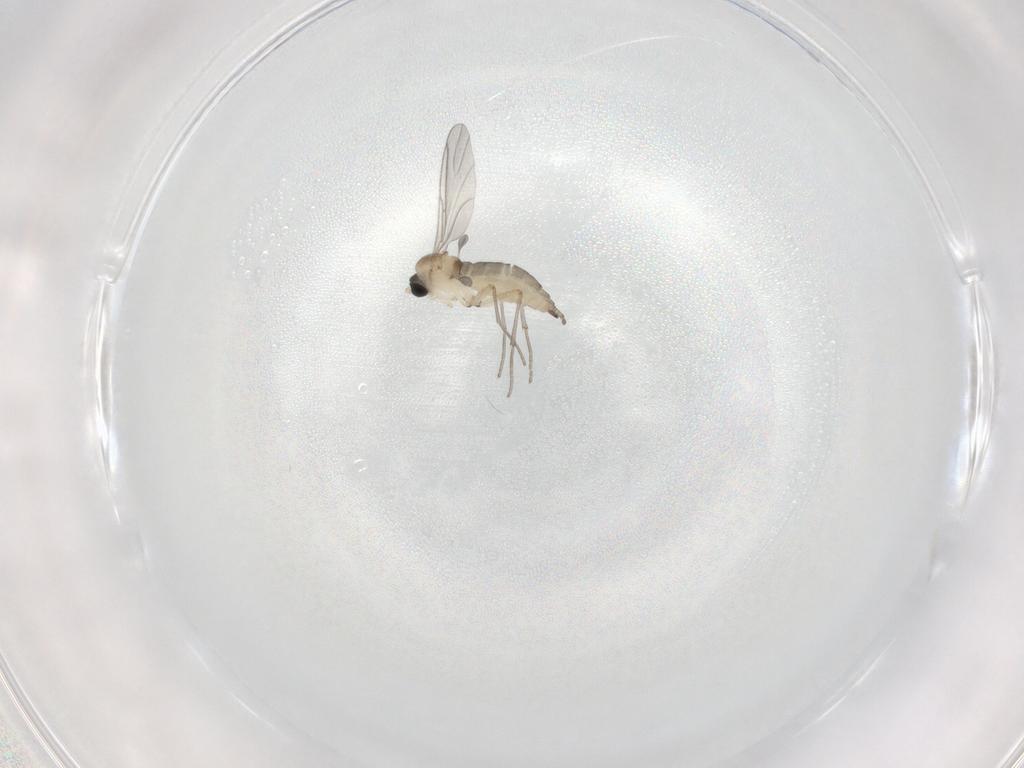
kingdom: Animalia
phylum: Arthropoda
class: Insecta
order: Diptera
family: Sciaridae
